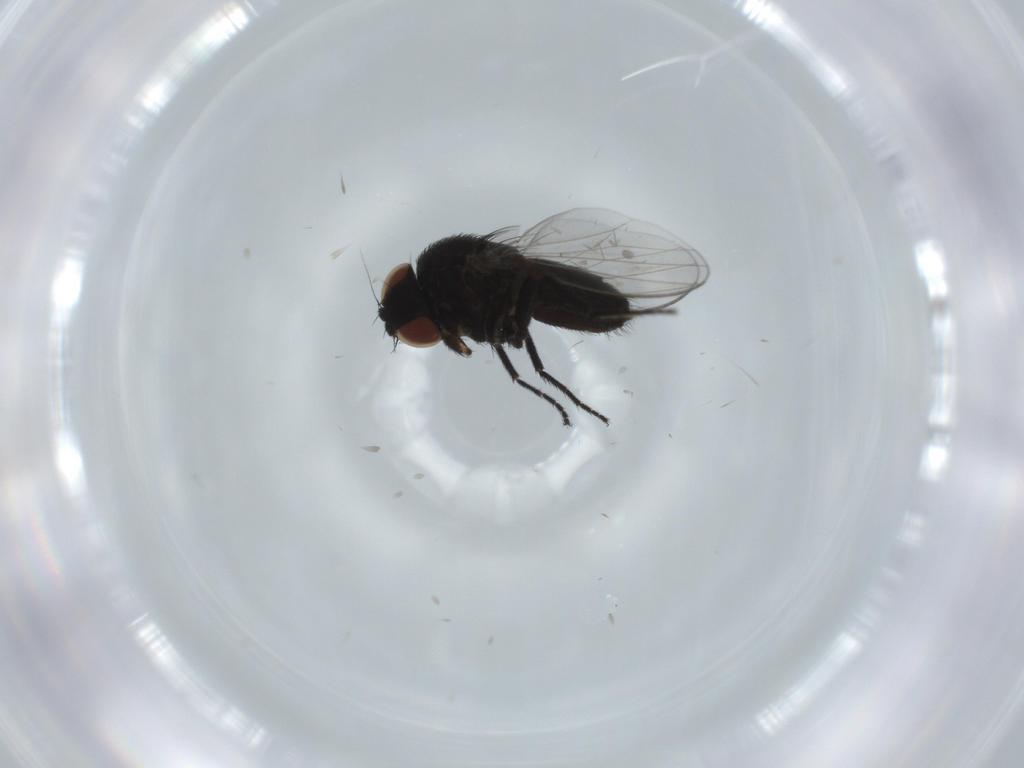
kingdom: Animalia
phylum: Arthropoda
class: Insecta
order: Diptera
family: Milichiidae
